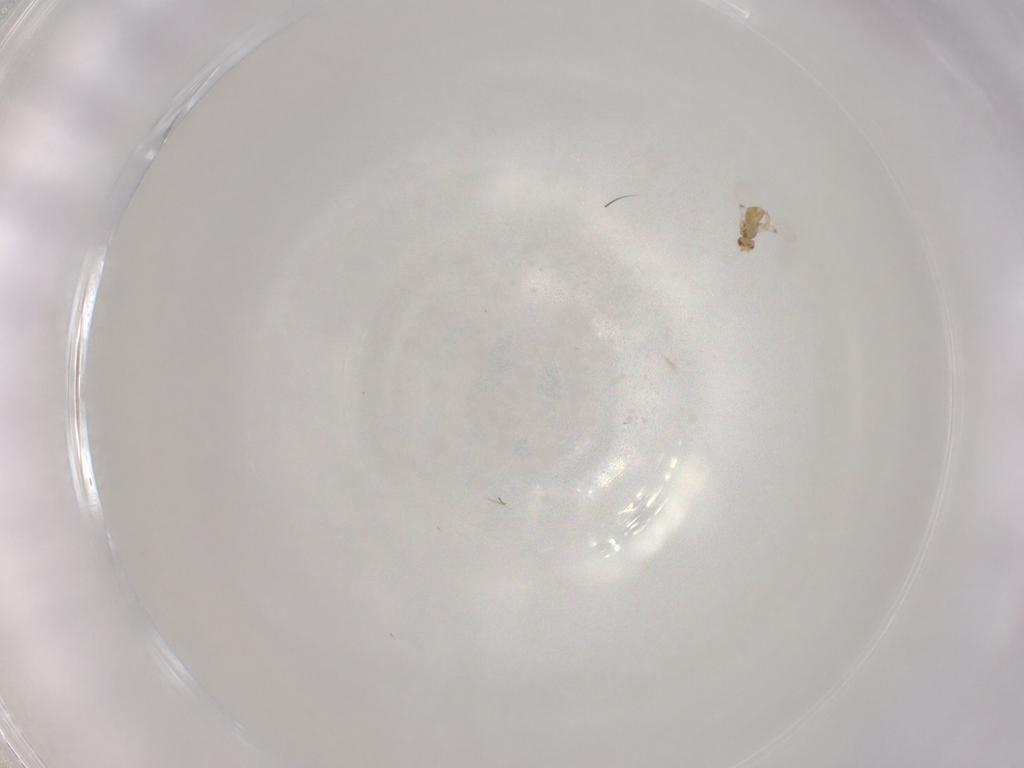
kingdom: Animalia
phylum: Arthropoda
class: Insecta
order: Hymenoptera
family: Trichogrammatidae
